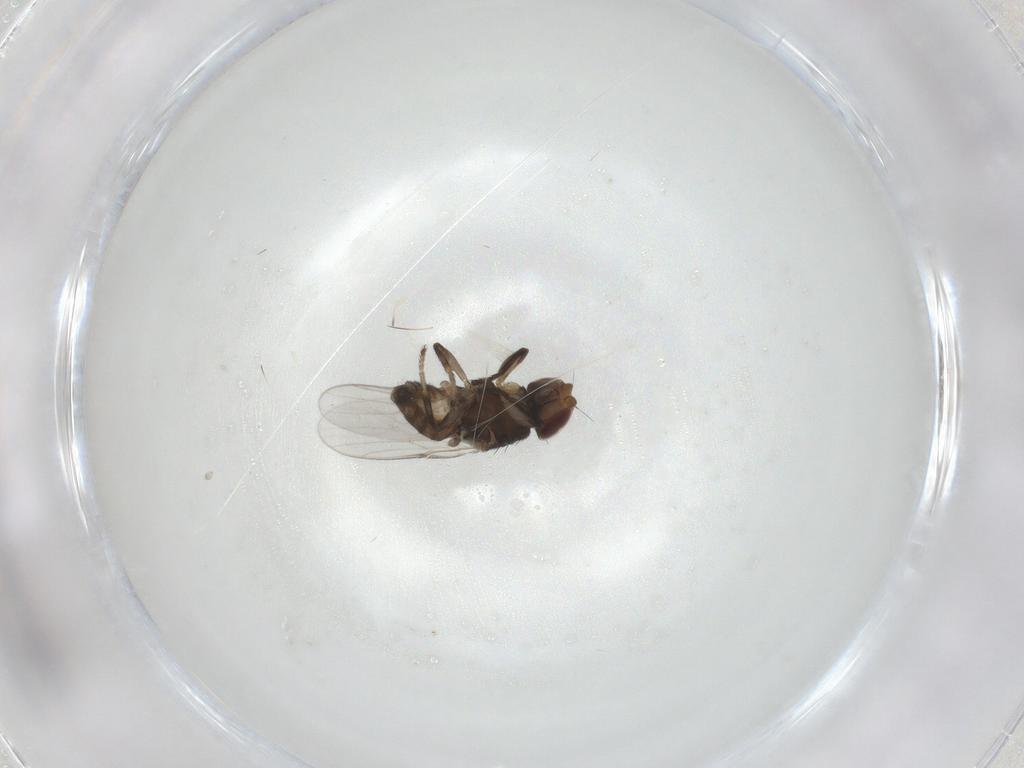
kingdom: Animalia
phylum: Arthropoda
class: Insecta
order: Diptera
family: Chloropidae
